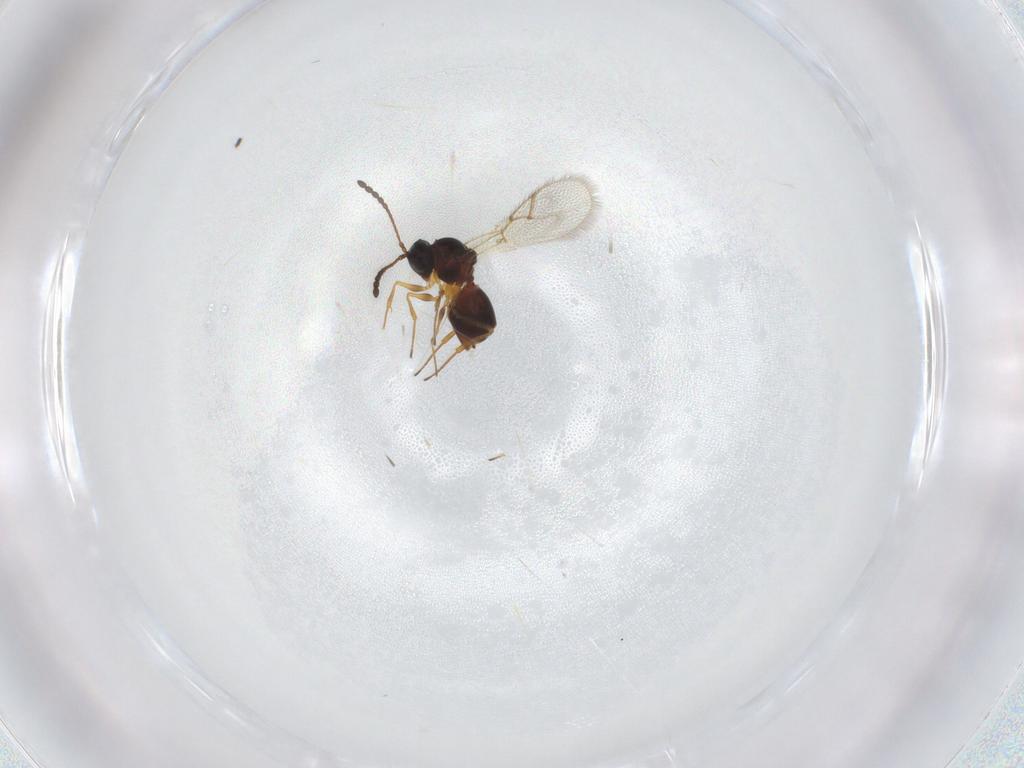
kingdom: Animalia
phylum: Arthropoda
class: Insecta
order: Hymenoptera
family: Figitidae
